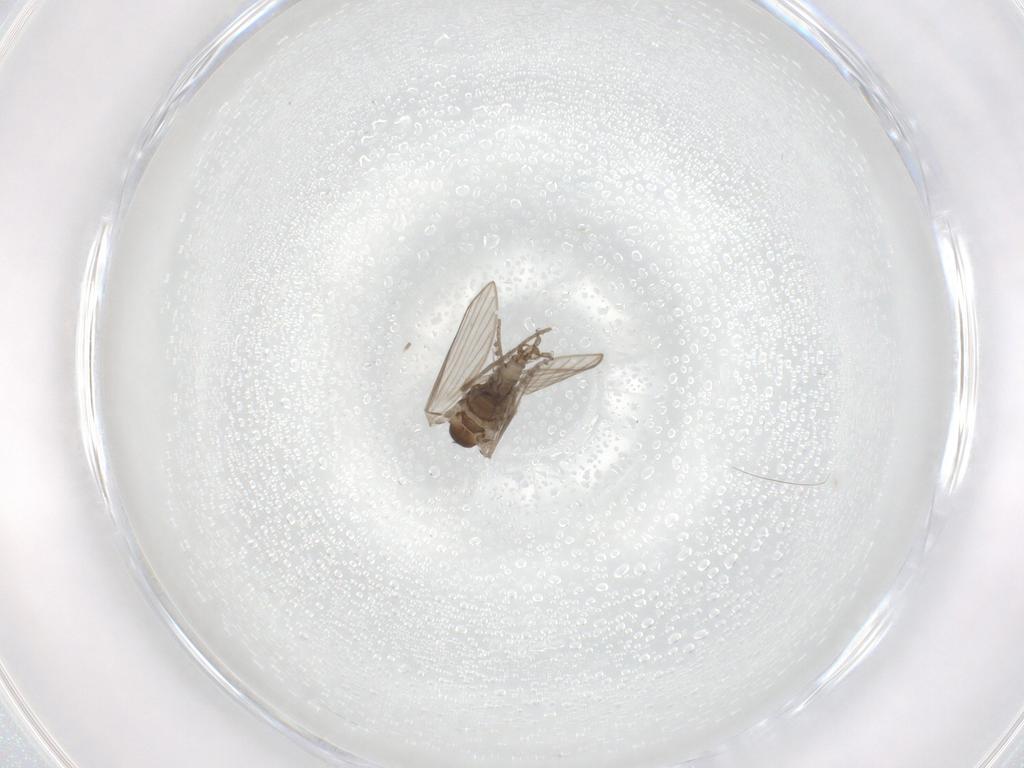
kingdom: Animalia
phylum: Arthropoda
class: Insecta
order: Diptera
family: Psychodidae
